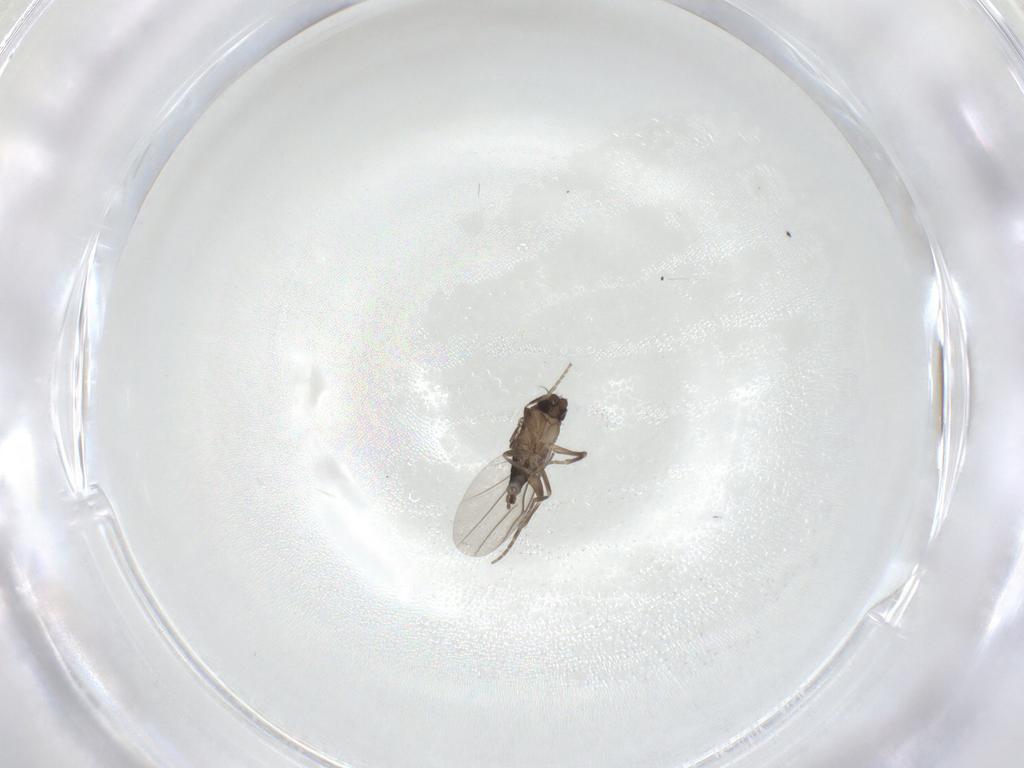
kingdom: Animalia
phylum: Arthropoda
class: Insecta
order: Diptera
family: Phoridae
